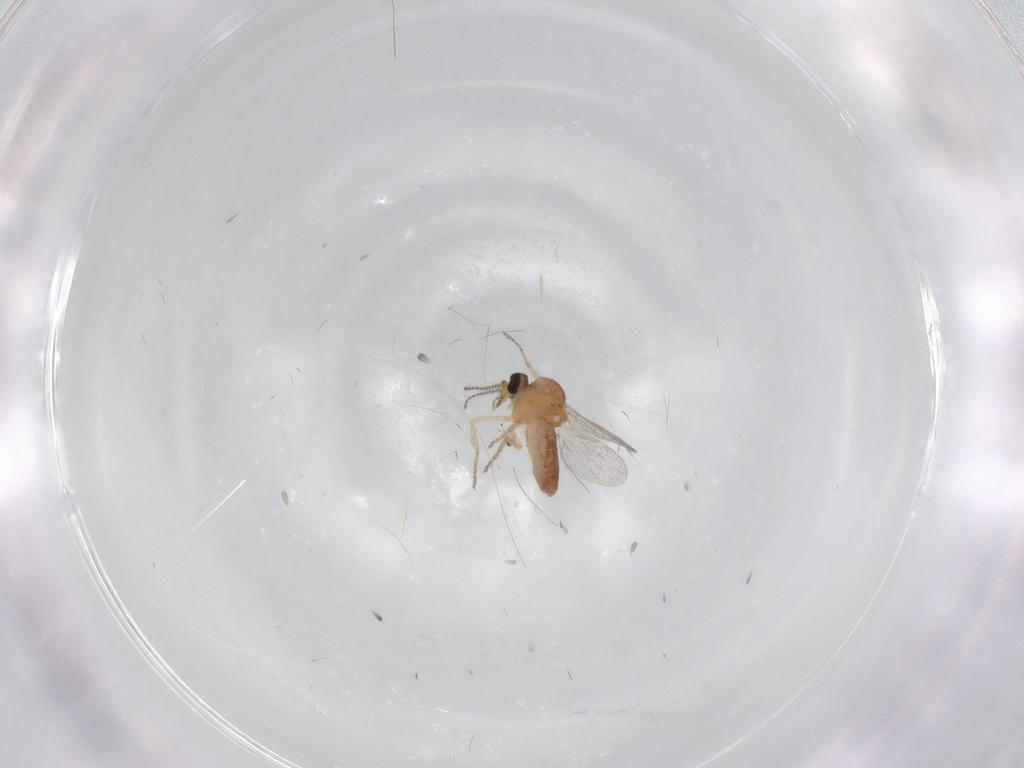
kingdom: Animalia
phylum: Arthropoda
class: Insecta
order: Diptera
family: Ceratopogonidae
